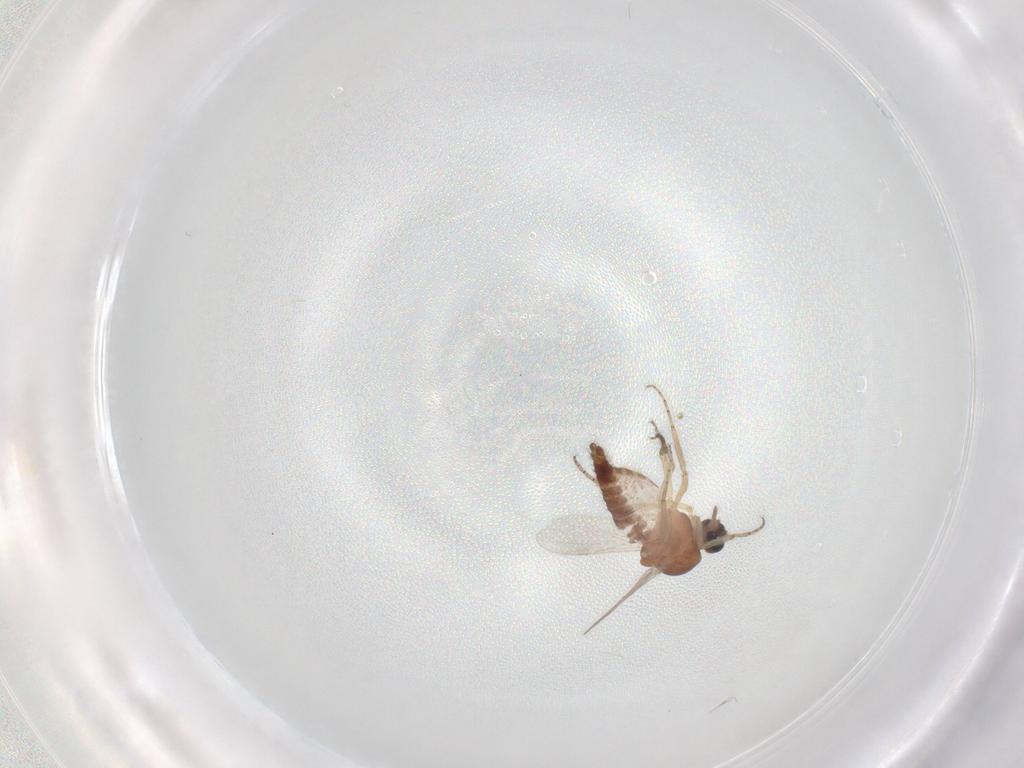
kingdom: Animalia
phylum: Arthropoda
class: Insecta
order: Diptera
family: Ceratopogonidae
